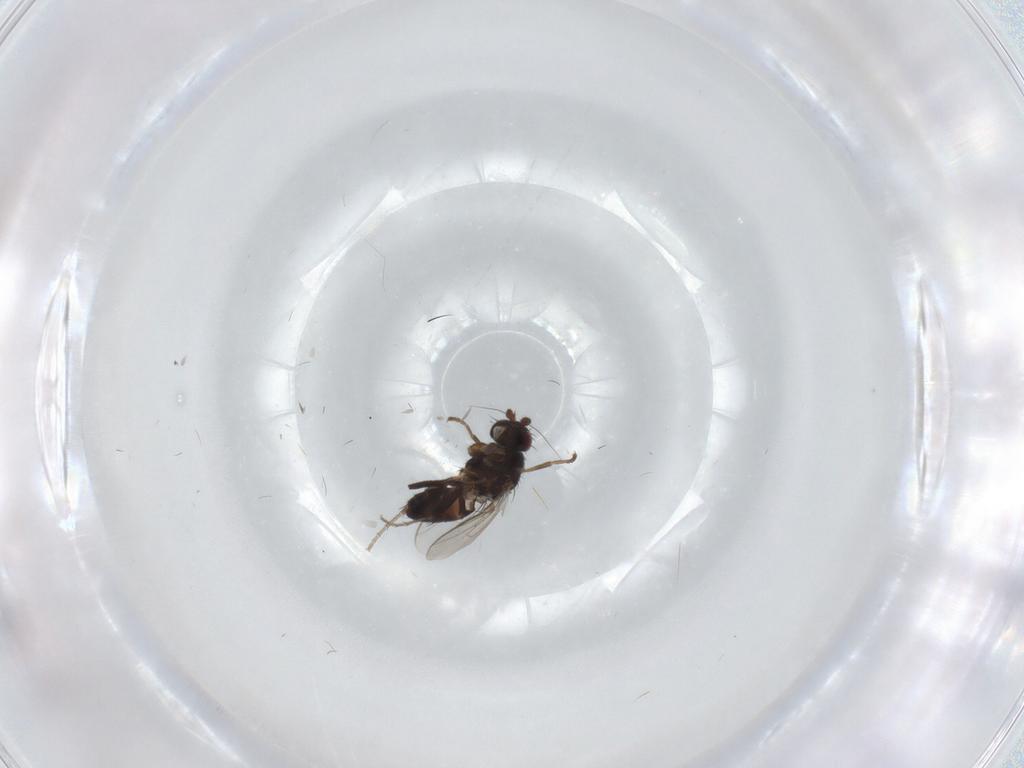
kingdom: Animalia
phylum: Arthropoda
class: Insecta
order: Diptera
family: Sphaeroceridae
